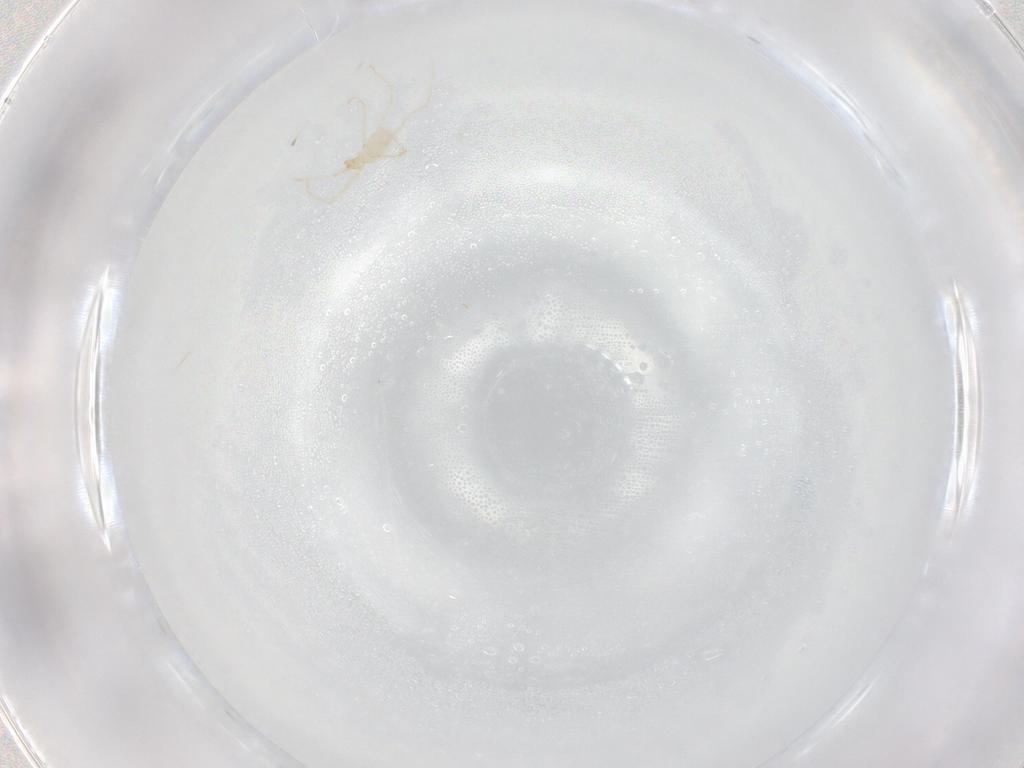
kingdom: Animalia
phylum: Arthropoda
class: Arachnida
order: Trombidiformes
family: Erythraeidae
